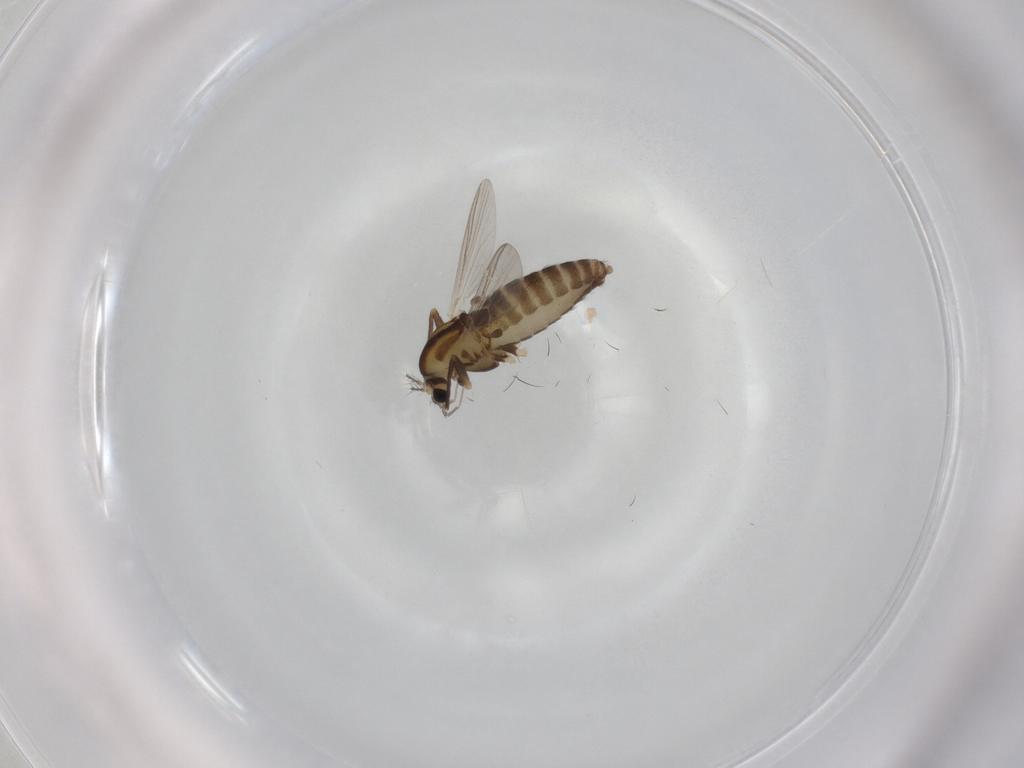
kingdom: Animalia
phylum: Arthropoda
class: Insecta
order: Diptera
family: Chironomidae
